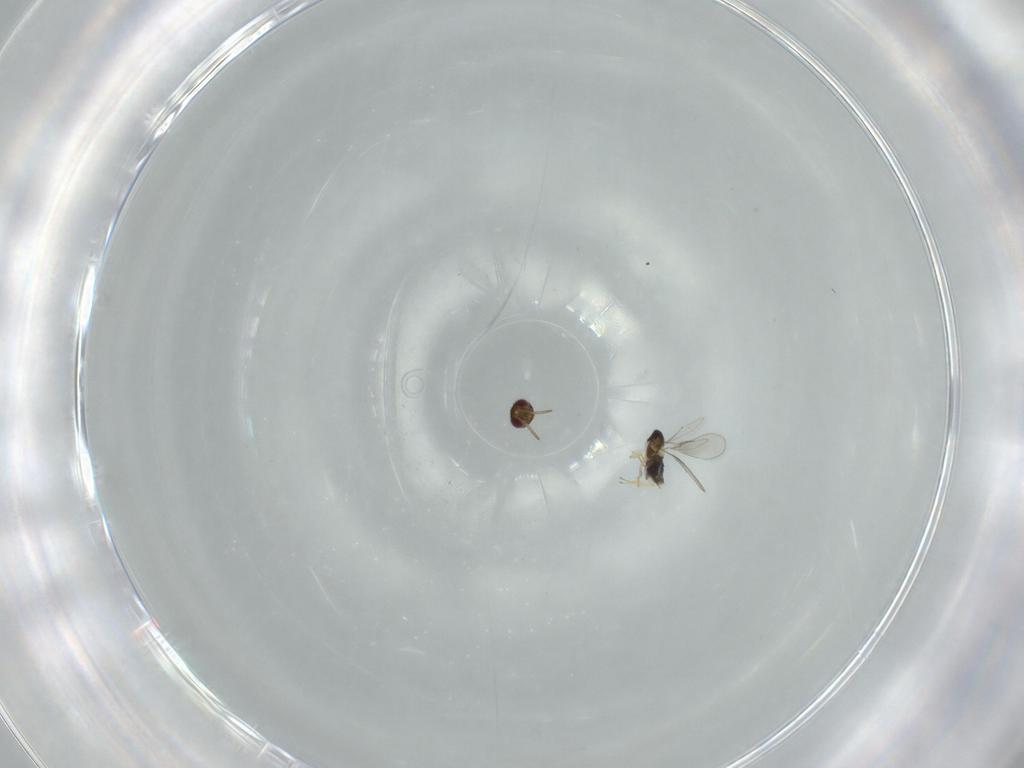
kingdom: Animalia
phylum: Arthropoda
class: Insecta
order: Hymenoptera
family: Aphelinidae
